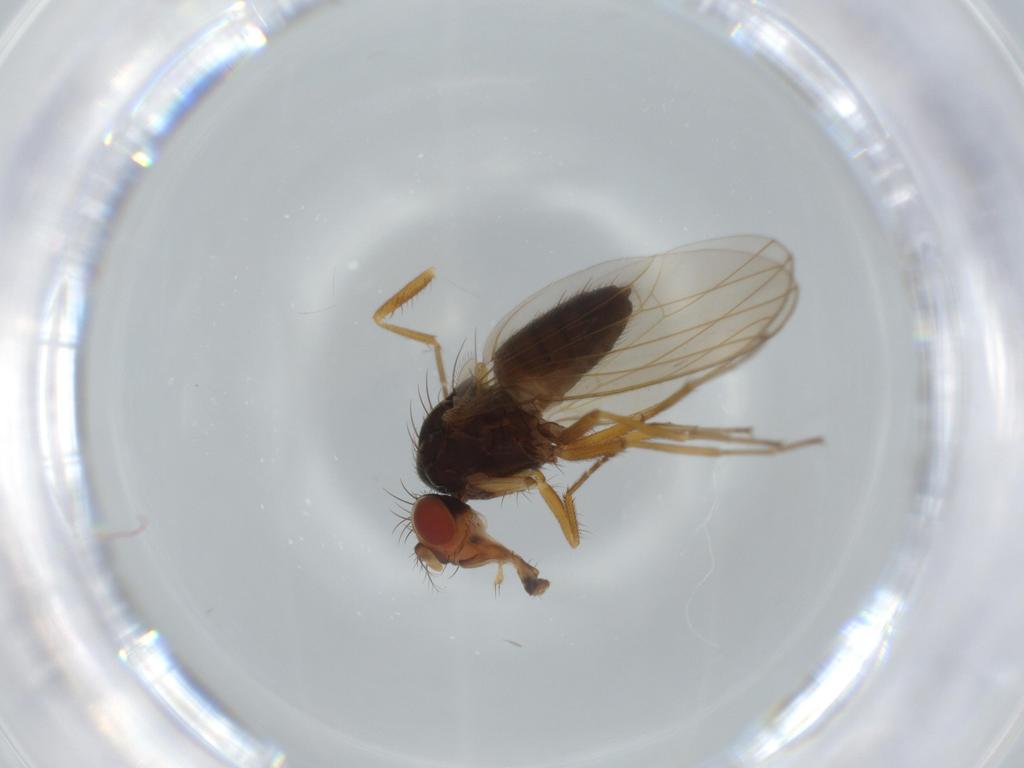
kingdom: Animalia
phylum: Arthropoda
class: Insecta
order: Diptera
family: Drosophilidae
